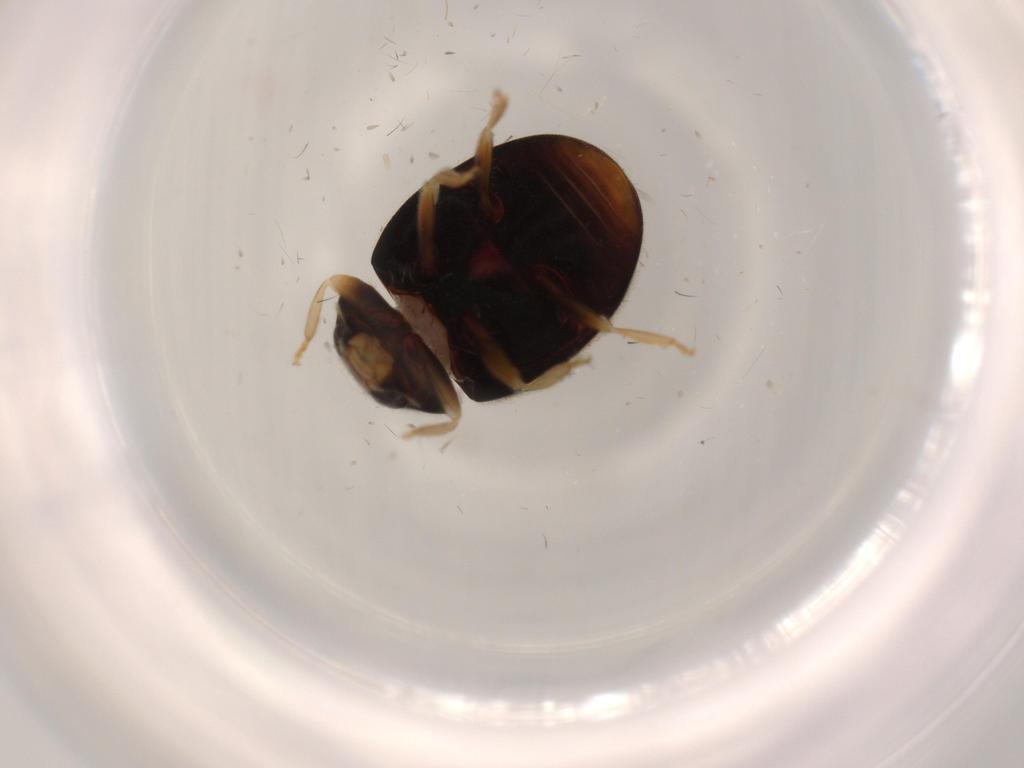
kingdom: Animalia
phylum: Arthropoda
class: Insecta
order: Coleoptera
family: Coccinellidae
